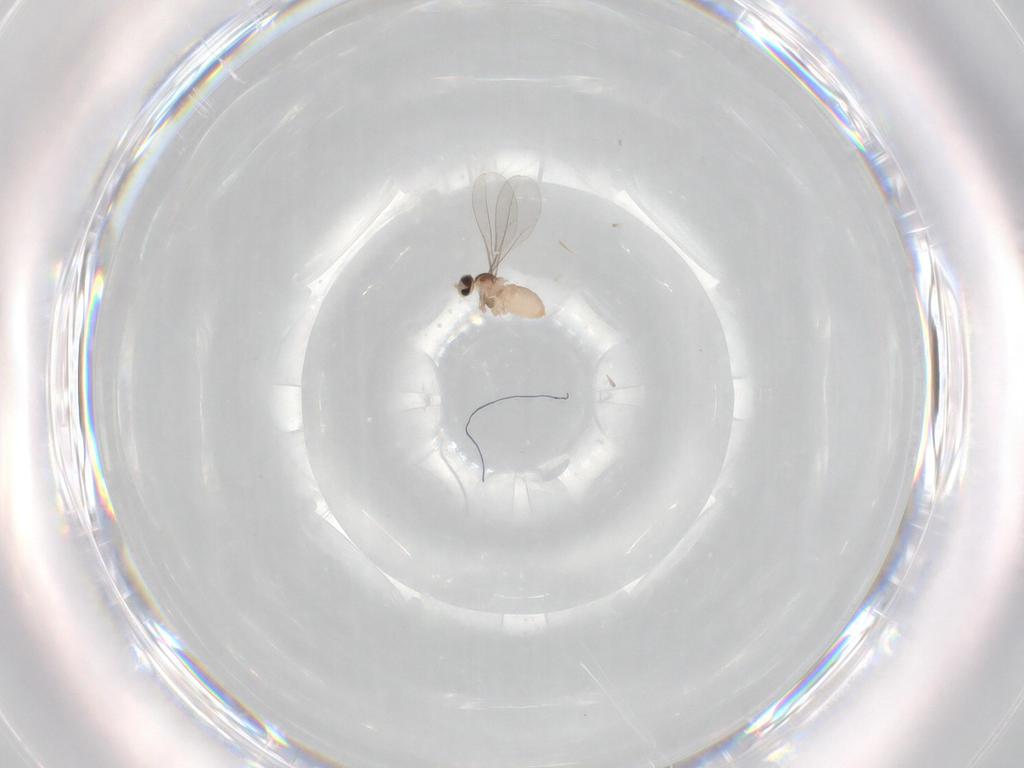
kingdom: Animalia
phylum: Arthropoda
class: Insecta
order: Diptera
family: Cecidomyiidae
